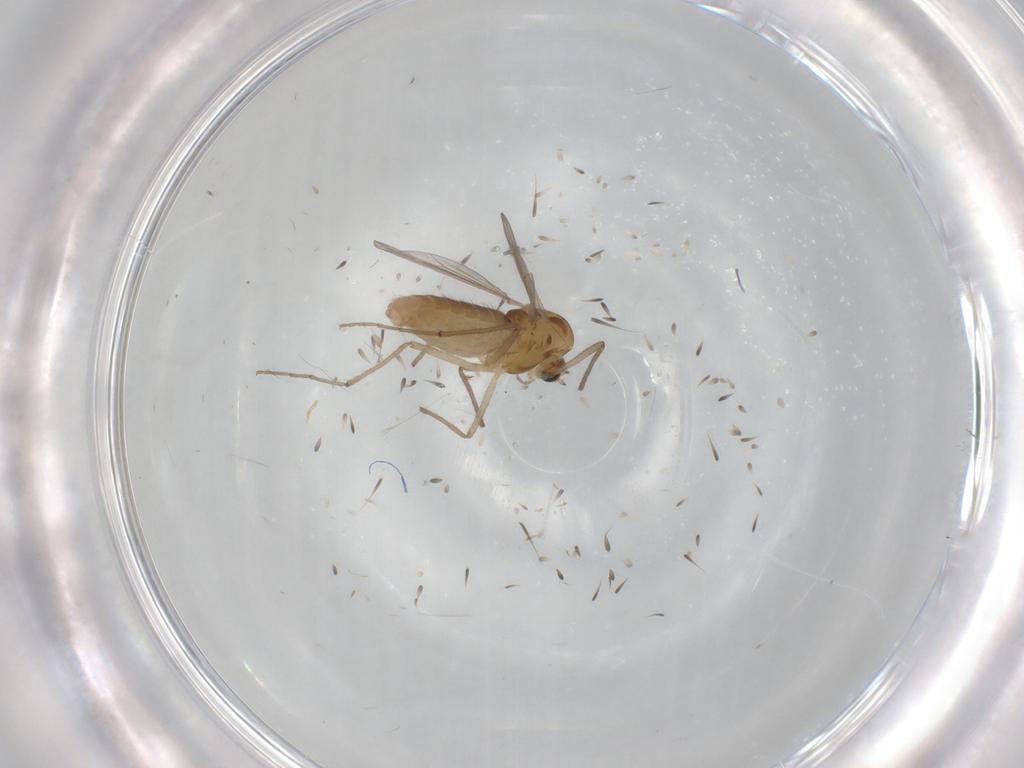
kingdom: Animalia
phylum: Arthropoda
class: Insecta
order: Diptera
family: Chironomidae
